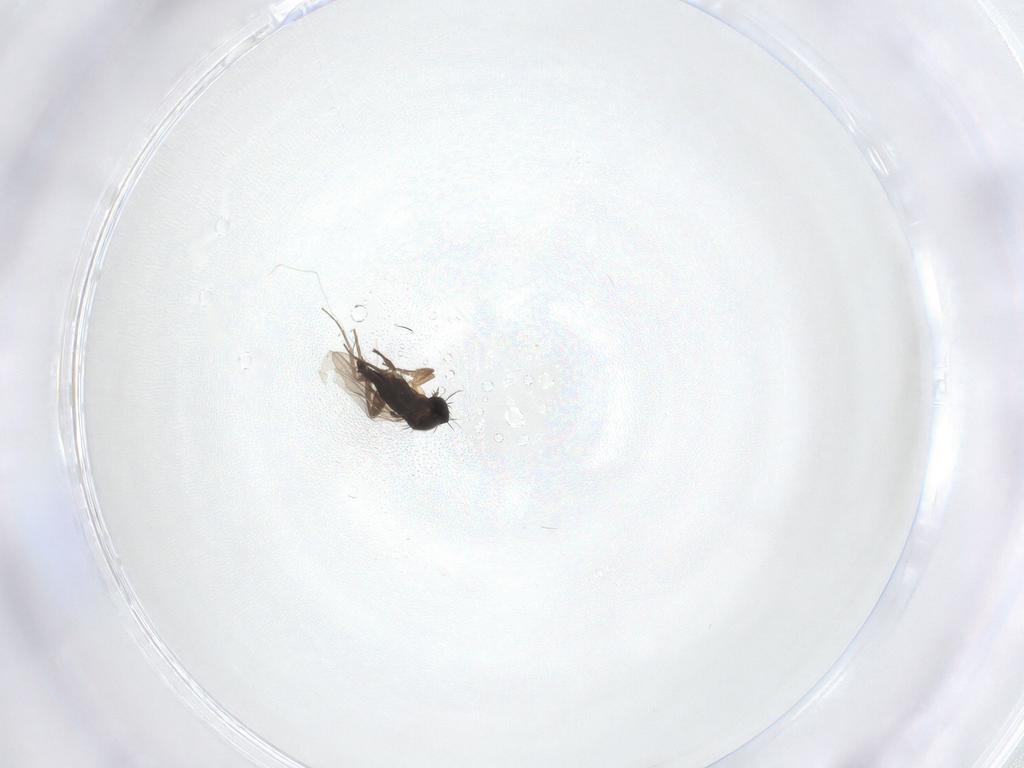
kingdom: Animalia
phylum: Arthropoda
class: Insecta
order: Diptera
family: Phoridae
